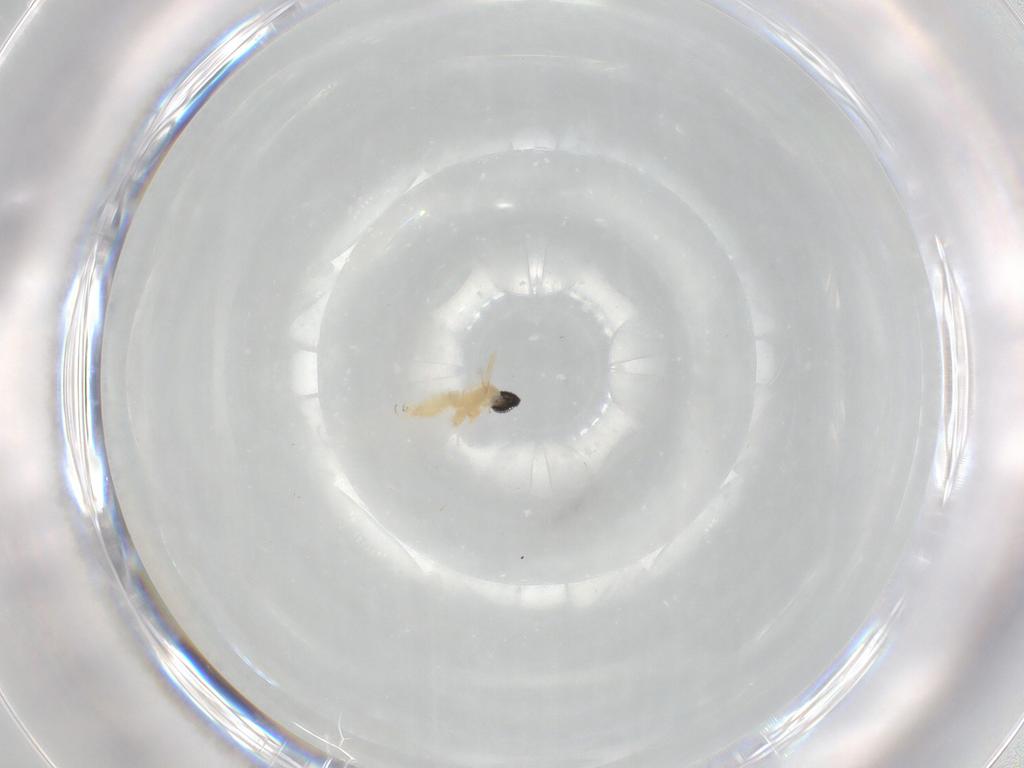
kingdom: Animalia
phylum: Arthropoda
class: Insecta
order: Diptera
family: Cecidomyiidae
